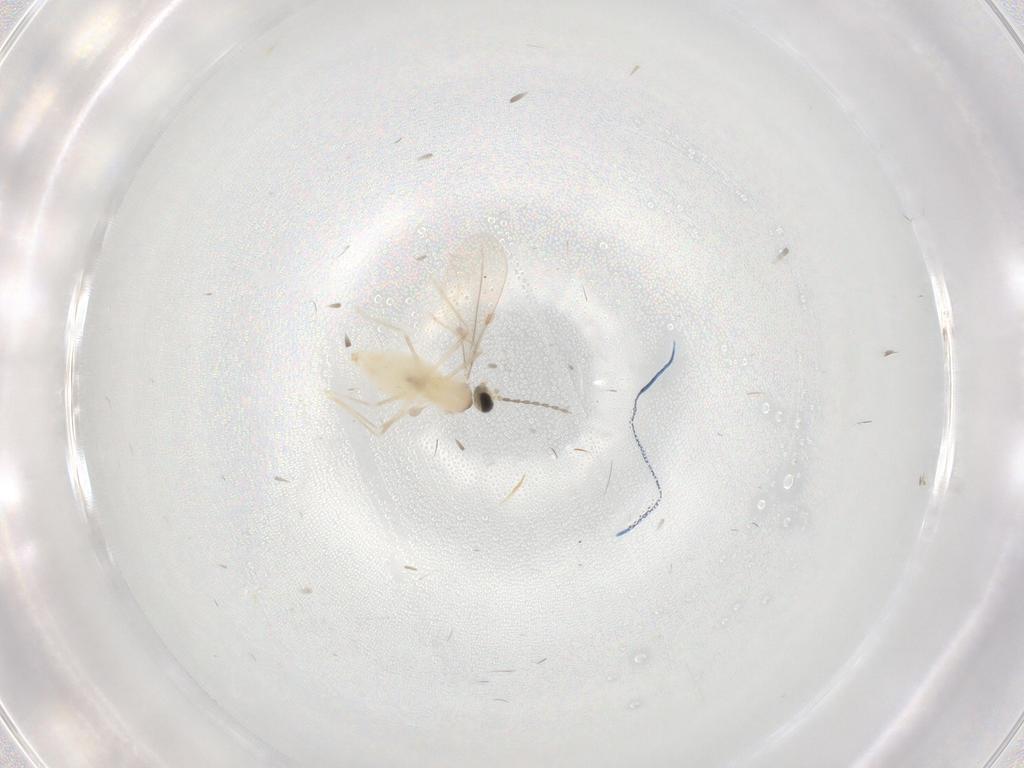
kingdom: Animalia
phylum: Arthropoda
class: Insecta
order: Diptera
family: Cecidomyiidae
